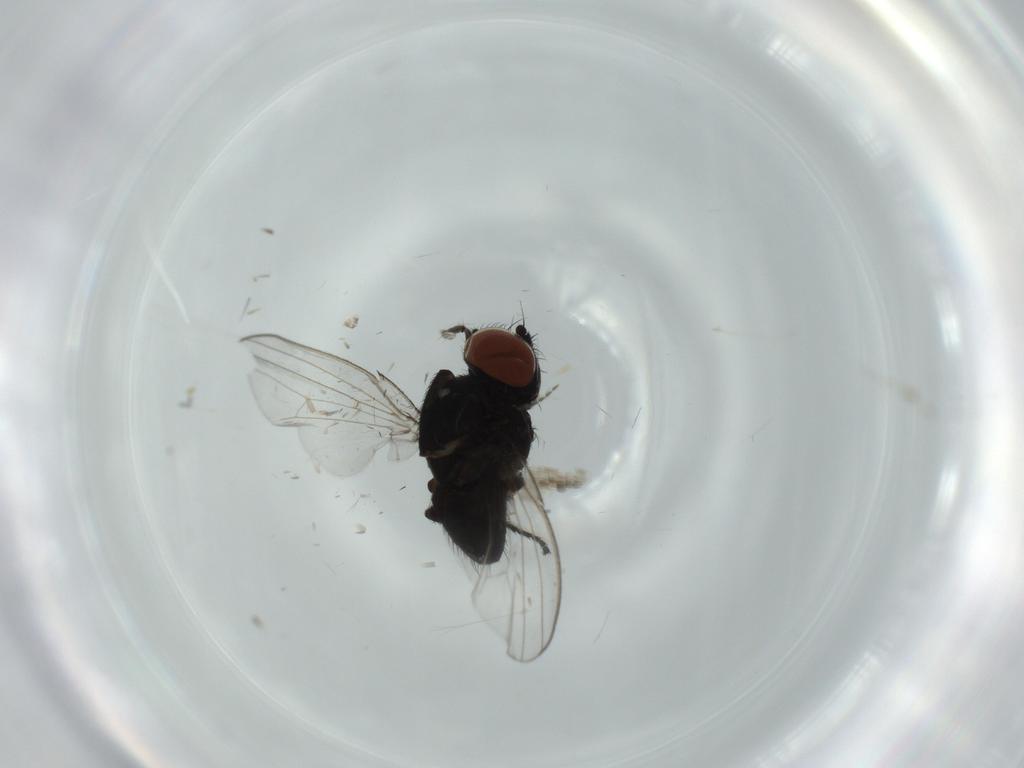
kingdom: Animalia
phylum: Arthropoda
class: Insecta
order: Diptera
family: Milichiidae
